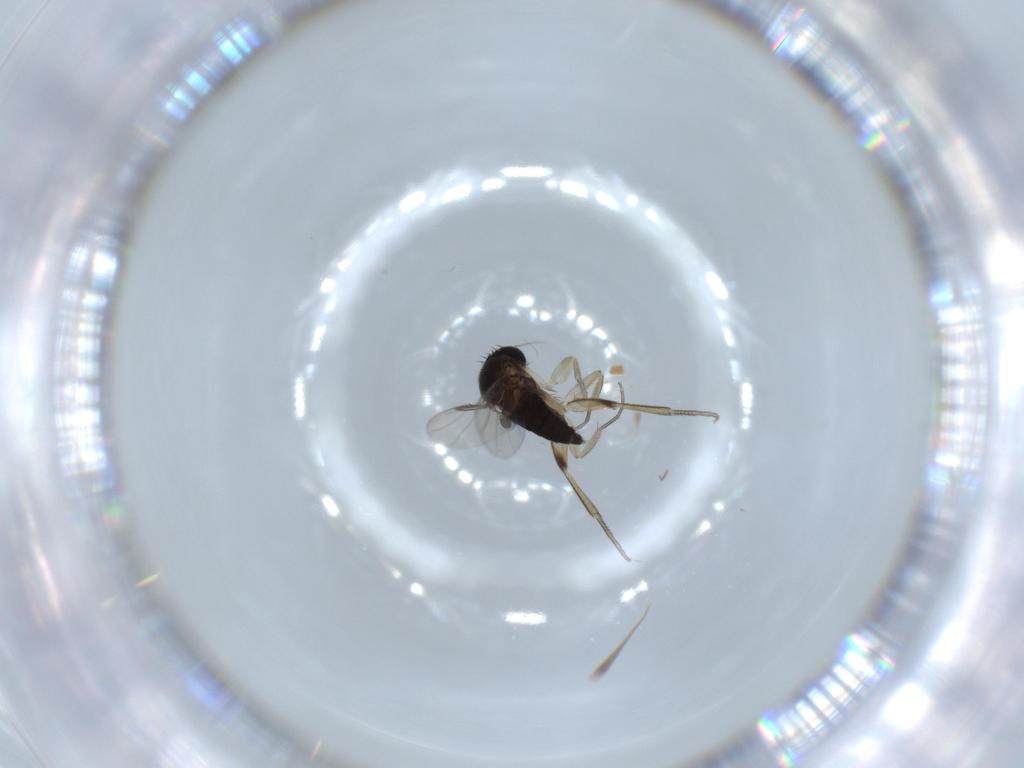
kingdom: Animalia
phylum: Arthropoda
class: Insecta
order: Diptera
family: Phoridae
